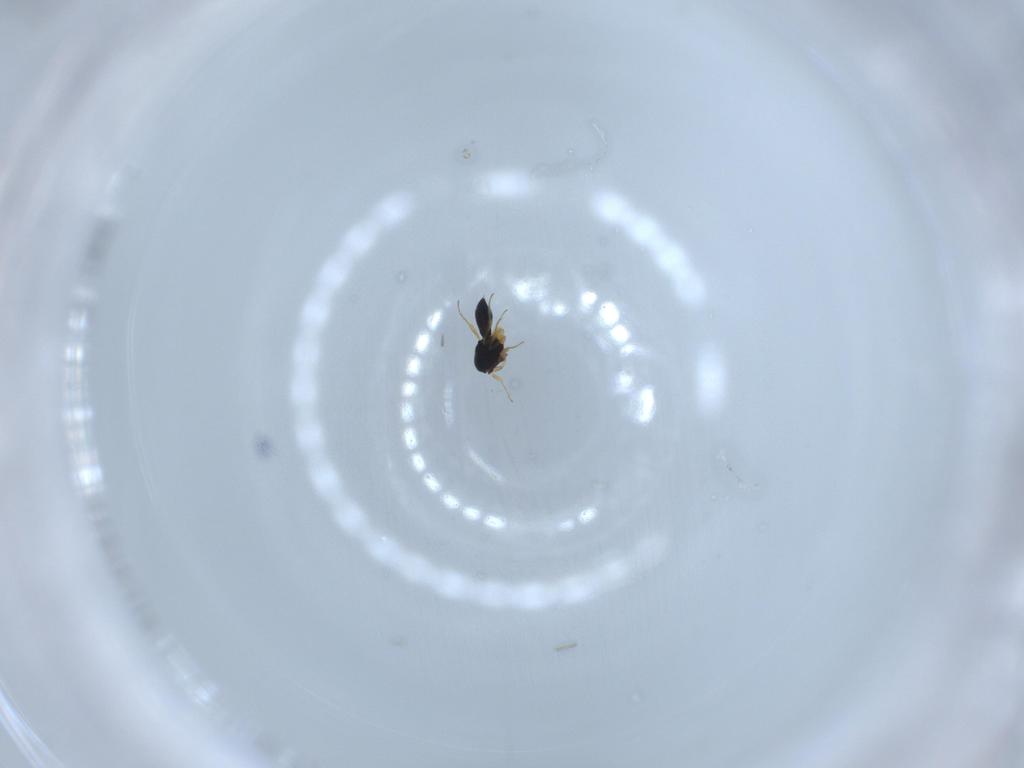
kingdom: Animalia
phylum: Arthropoda
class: Insecta
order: Hymenoptera
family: Scelionidae
